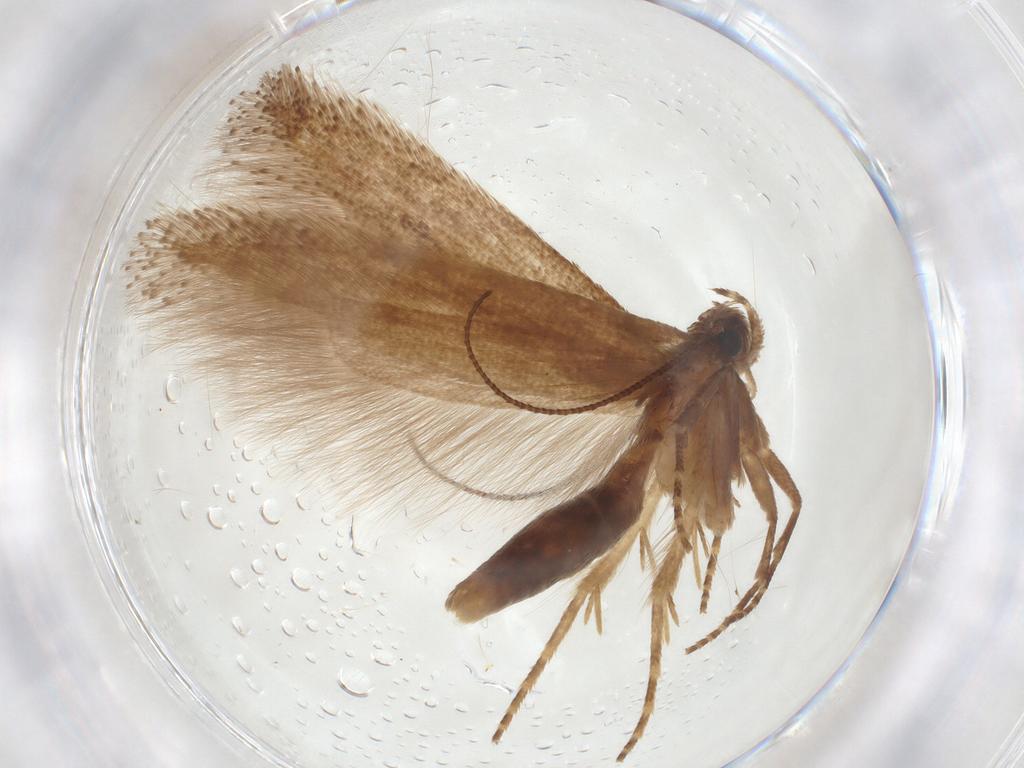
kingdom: Animalia
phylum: Arthropoda
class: Insecta
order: Lepidoptera
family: Gelechiidae
